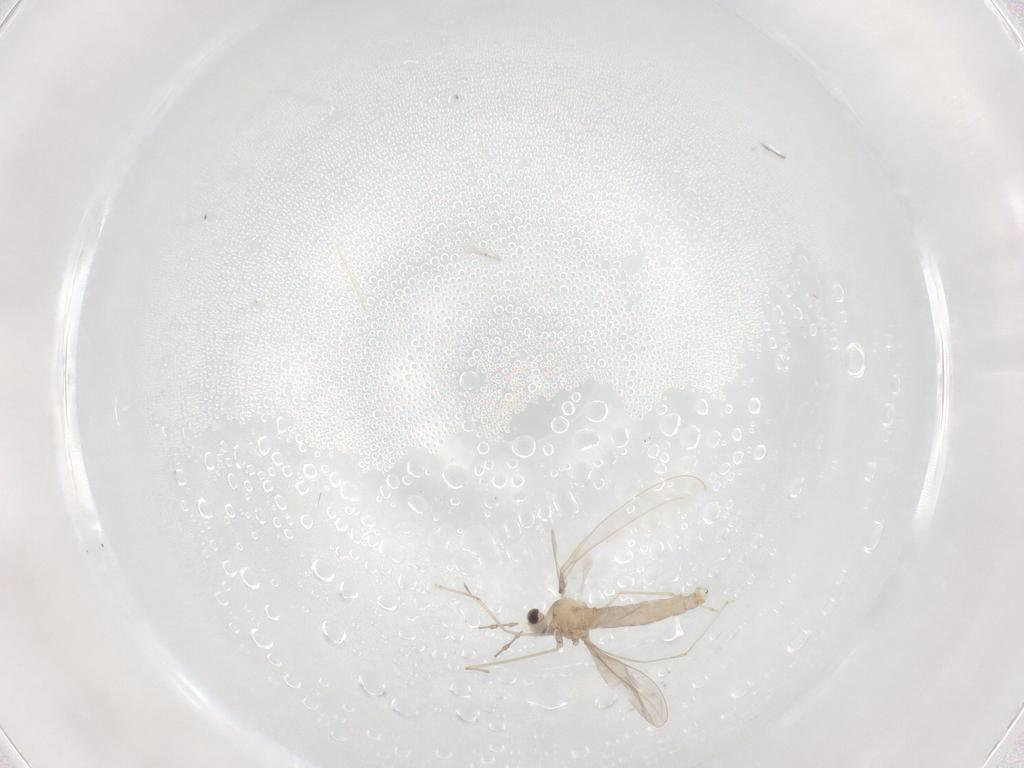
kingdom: Animalia
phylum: Arthropoda
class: Insecta
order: Diptera
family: Mycetophilidae
